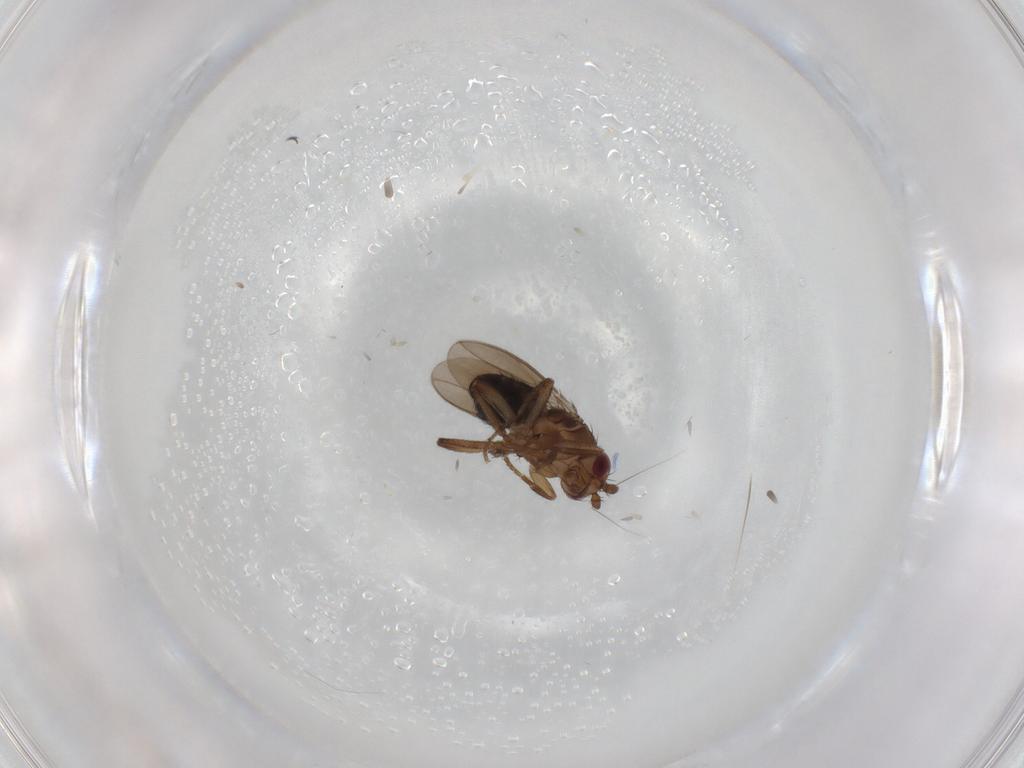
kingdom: Animalia
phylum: Arthropoda
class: Insecta
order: Diptera
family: Sphaeroceridae
